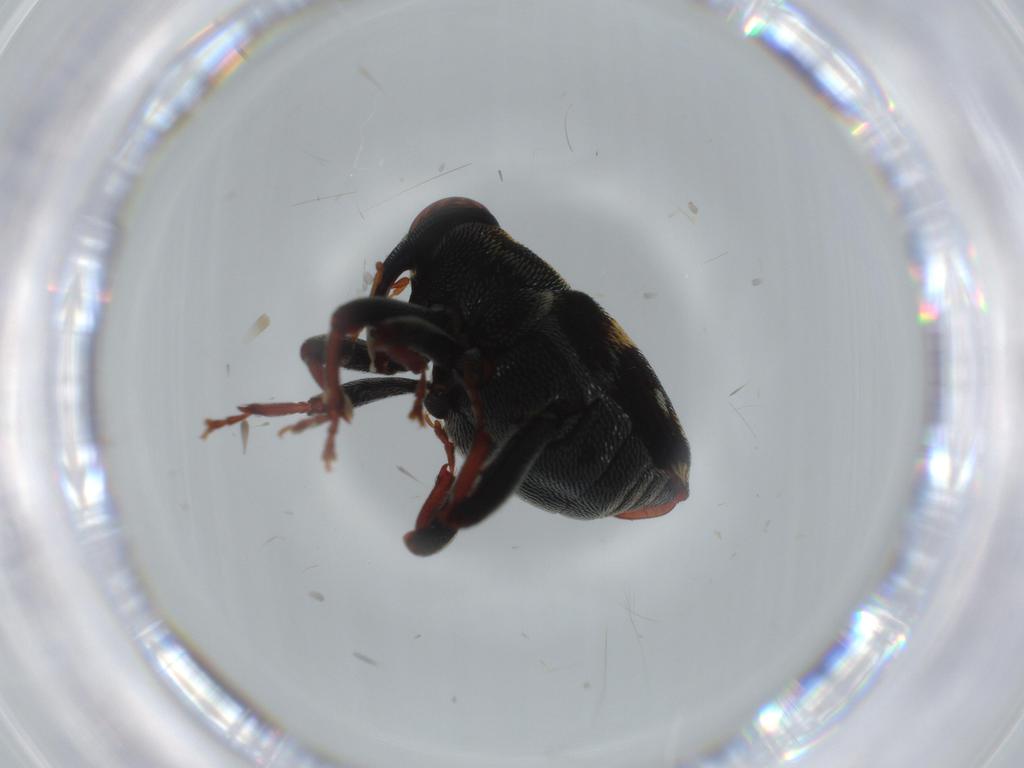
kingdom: Animalia
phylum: Arthropoda
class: Insecta
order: Coleoptera
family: Curculionidae
